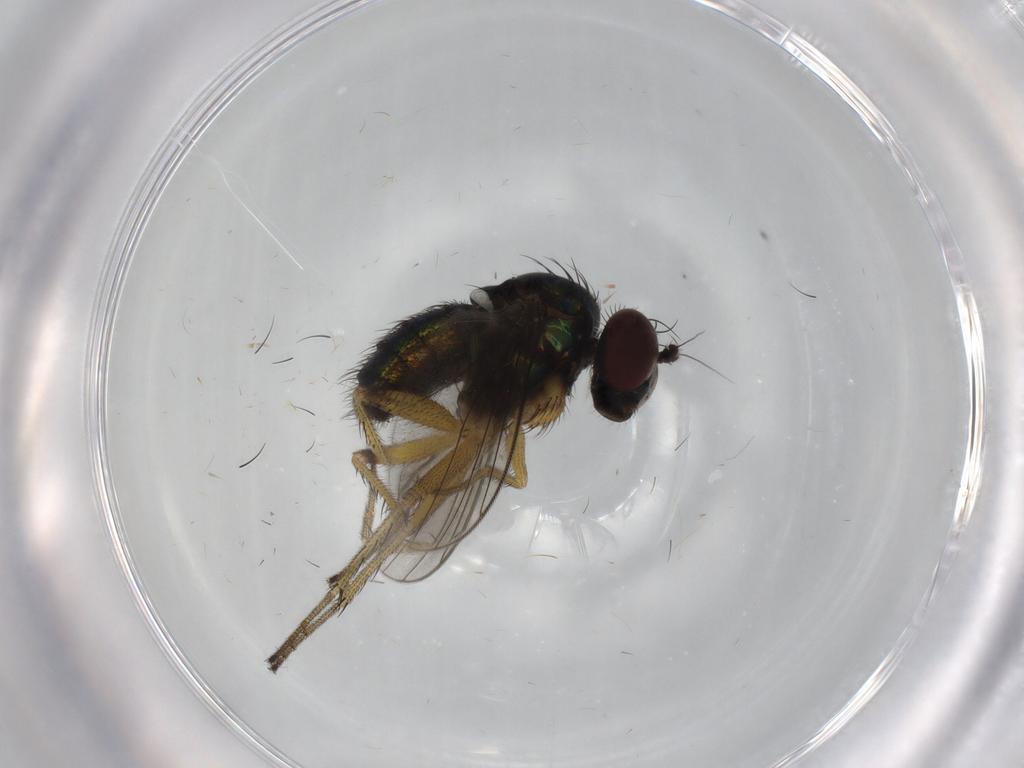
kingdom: Animalia
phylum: Arthropoda
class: Insecta
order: Diptera
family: Dolichopodidae
